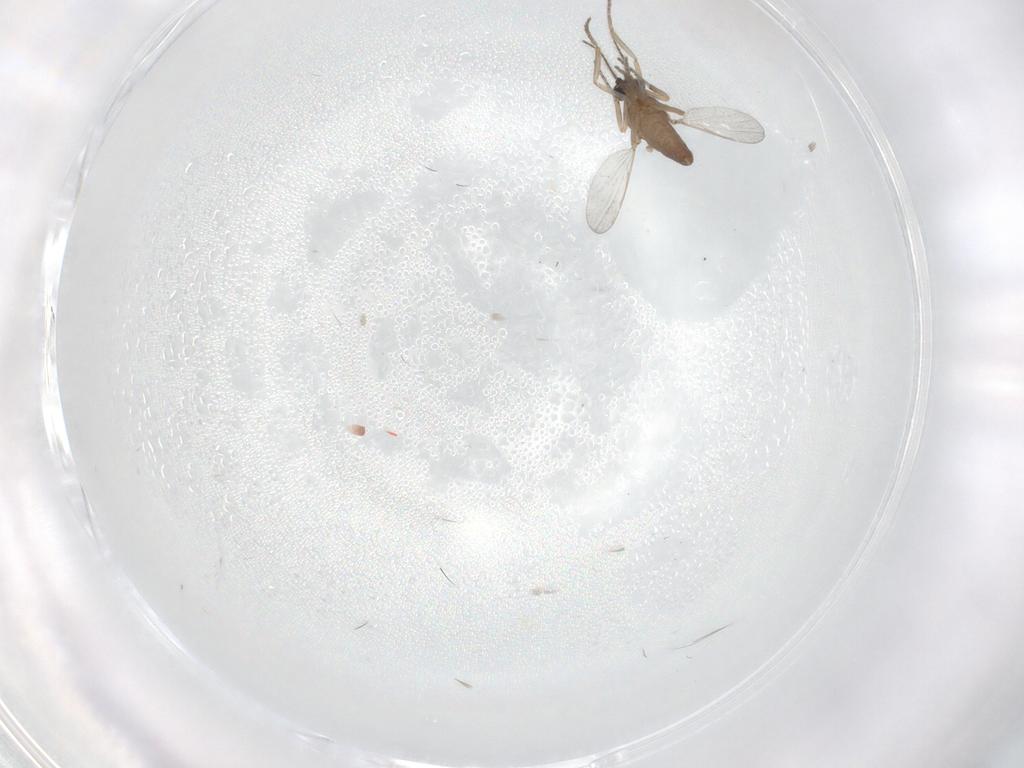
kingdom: Animalia
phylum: Arthropoda
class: Insecta
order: Diptera
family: Cecidomyiidae
